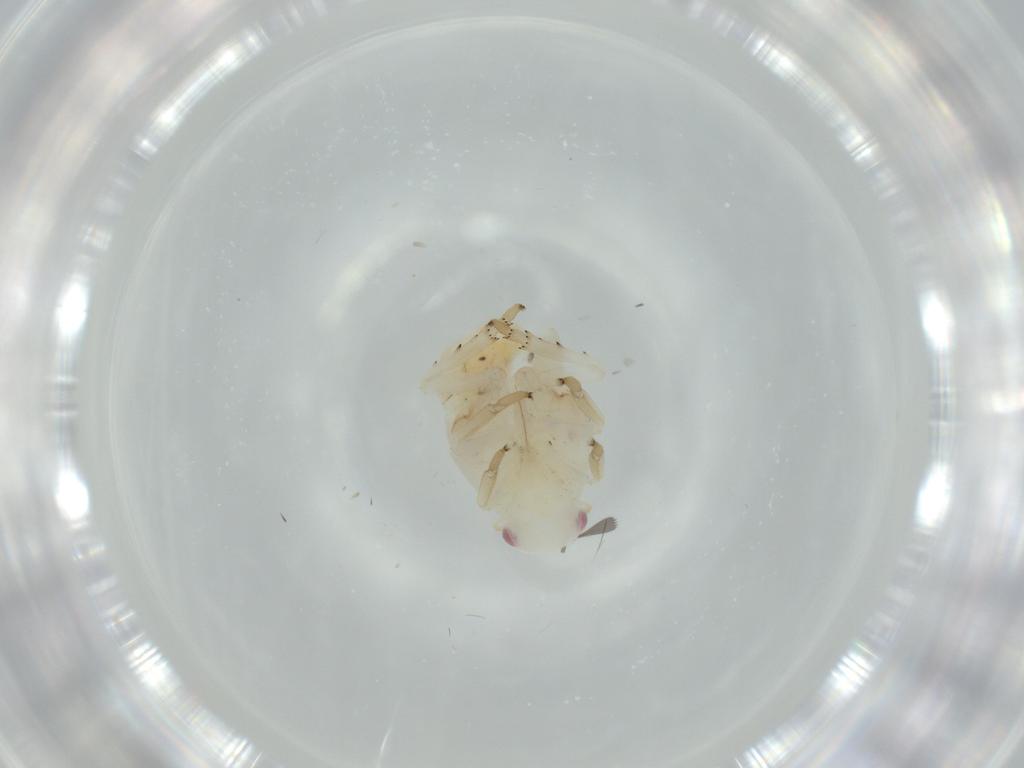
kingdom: Animalia
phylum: Arthropoda
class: Insecta
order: Hemiptera
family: Flatidae
